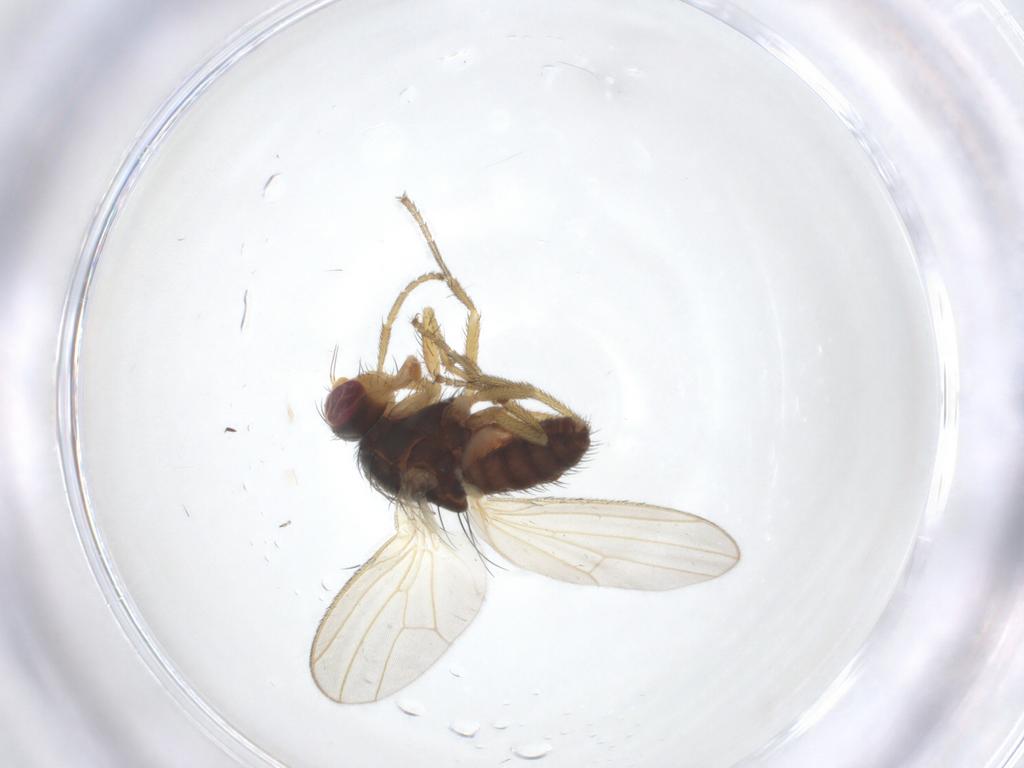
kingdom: Animalia
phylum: Arthropoda
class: Insecta
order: Diptera
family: Heleomyzidae
